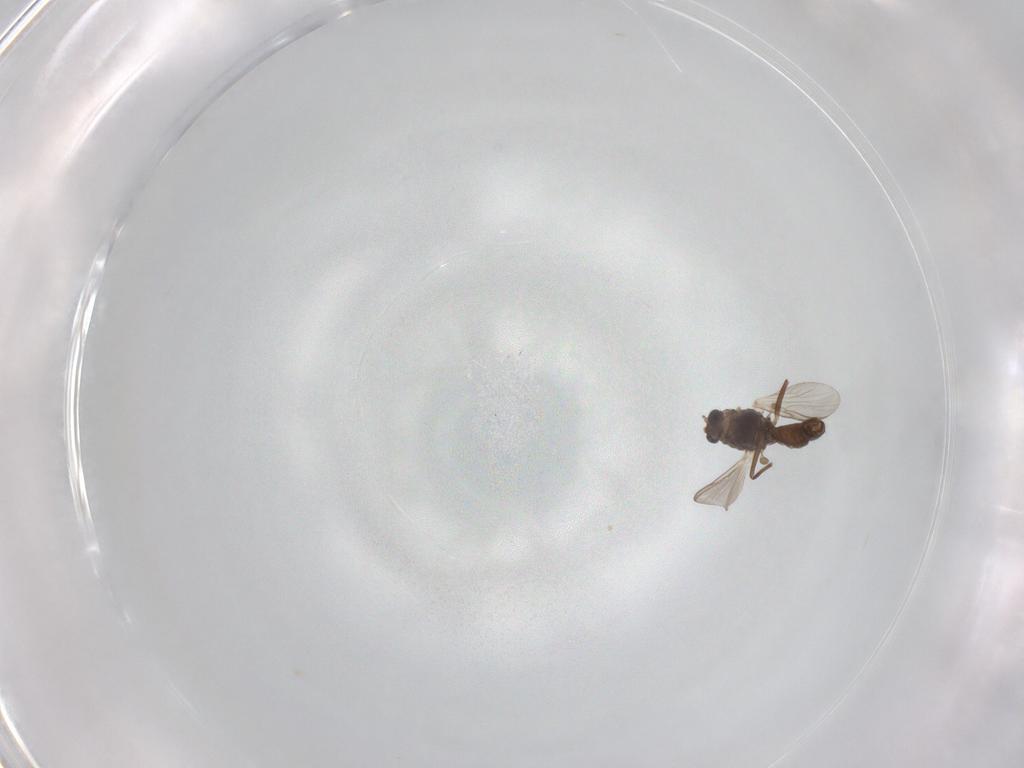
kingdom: Animalia
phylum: Arthropoda
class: Insecta
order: Diptera
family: Chironomidae
